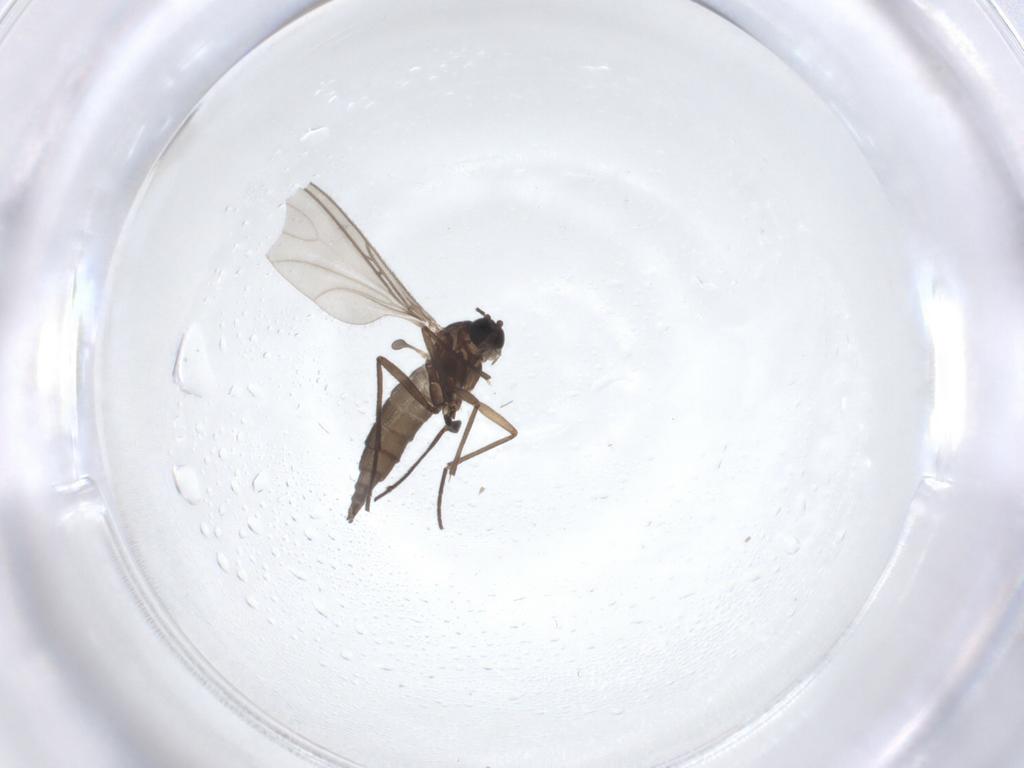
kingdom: Animalia
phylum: Arthropoda
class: Insecta
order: Diptera
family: Sciaridae
